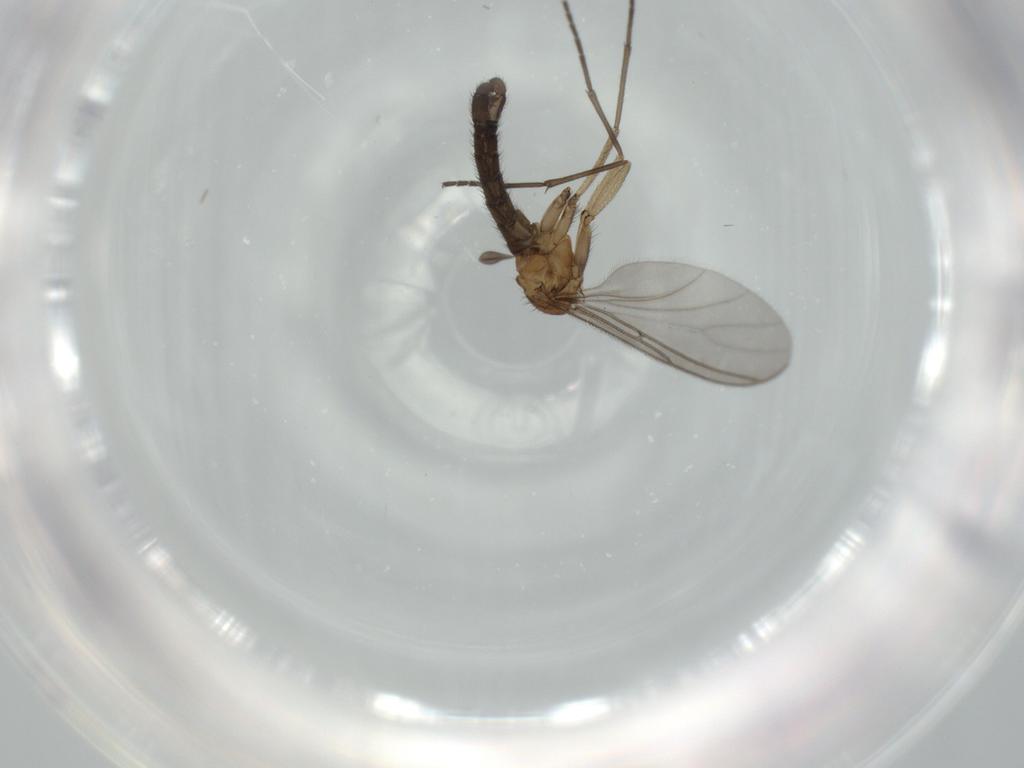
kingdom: Animalia
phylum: Arthropoda
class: Insecta
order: Diptera
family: Sciaridae
